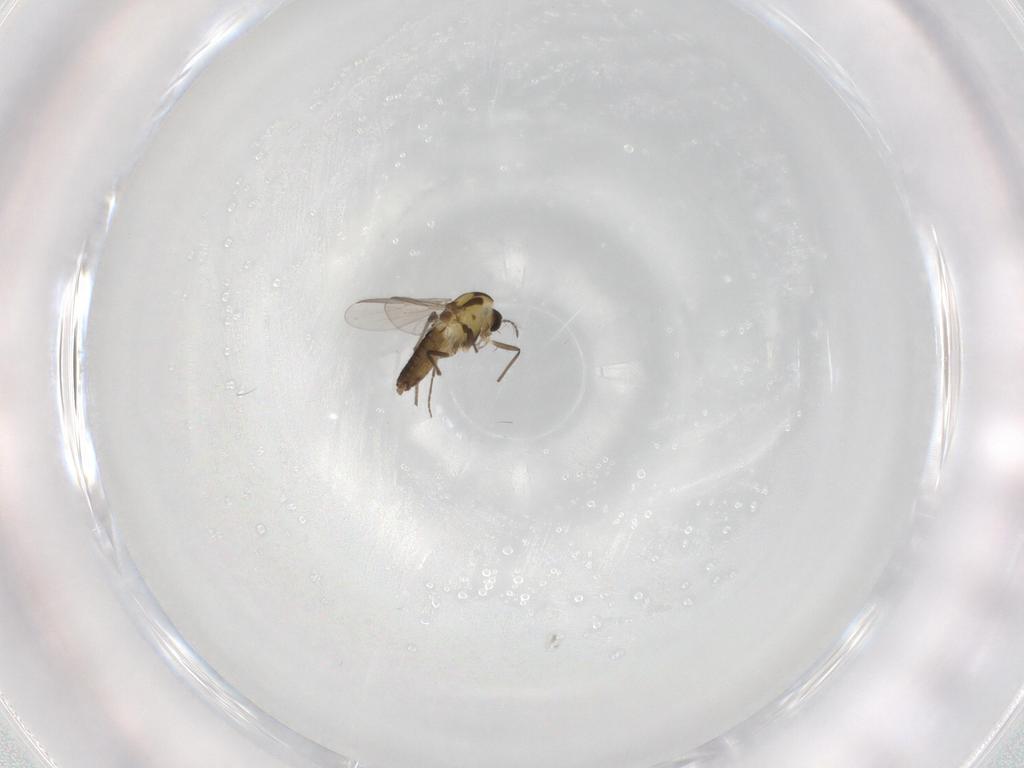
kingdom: Animalia
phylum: Arthropoda
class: Insecta
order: Diptera
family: Chironomidae
